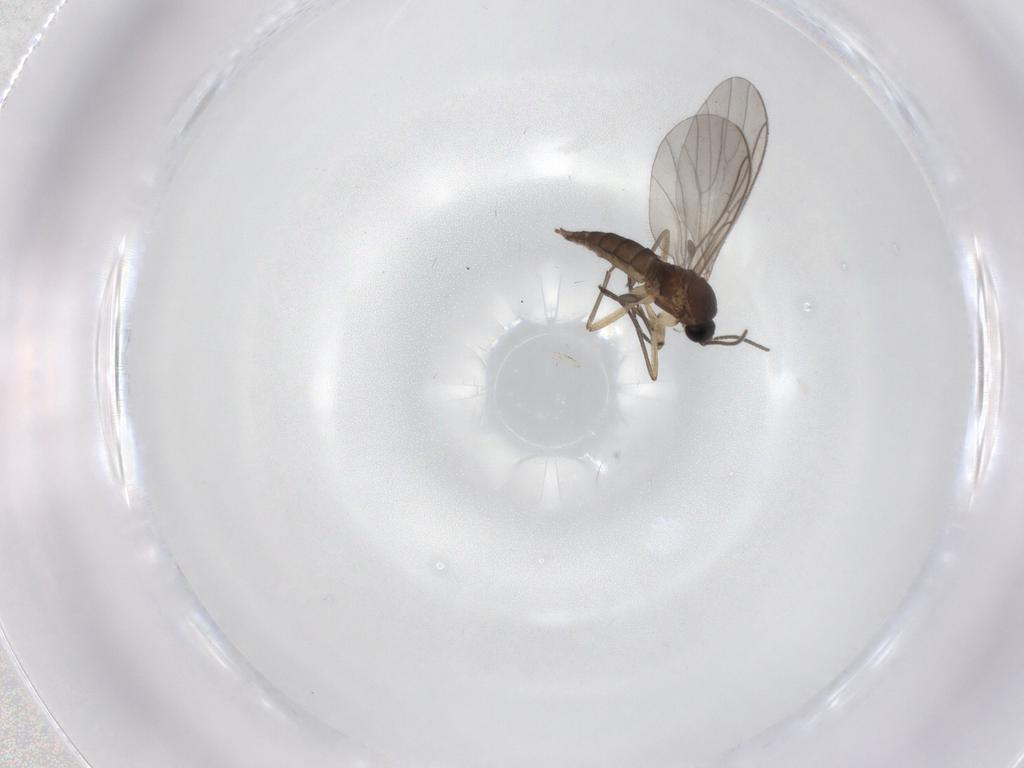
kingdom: Animalia
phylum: Arthropoda
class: Insecta
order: Diptera
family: Sciaridae
